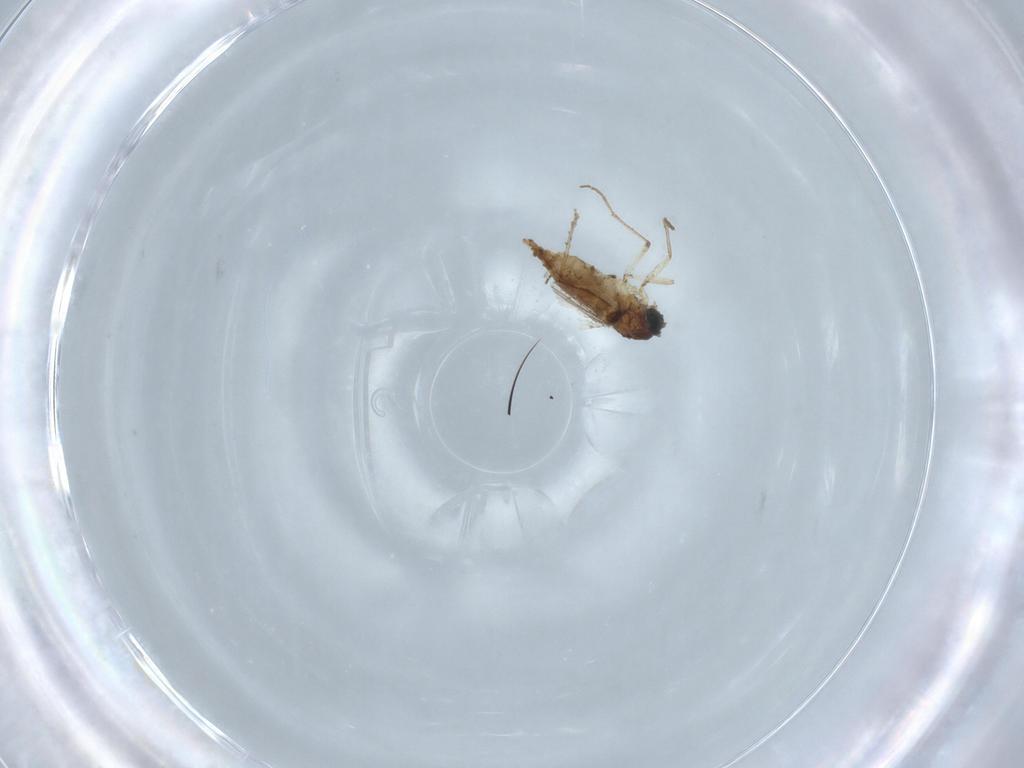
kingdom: Animalia
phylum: Arthropoda
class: Insecta
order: Diptera
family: Sciaridae
